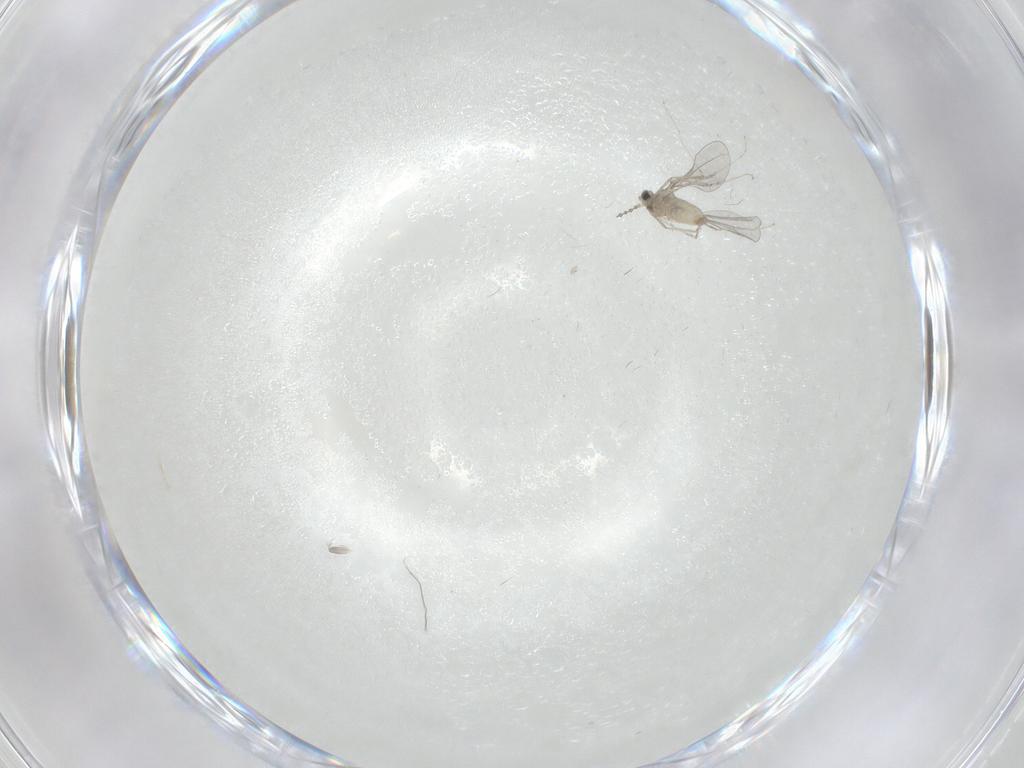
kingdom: Animalia
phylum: Arthropoda
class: Insecta
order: Diptera
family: Cecidomyiidae
